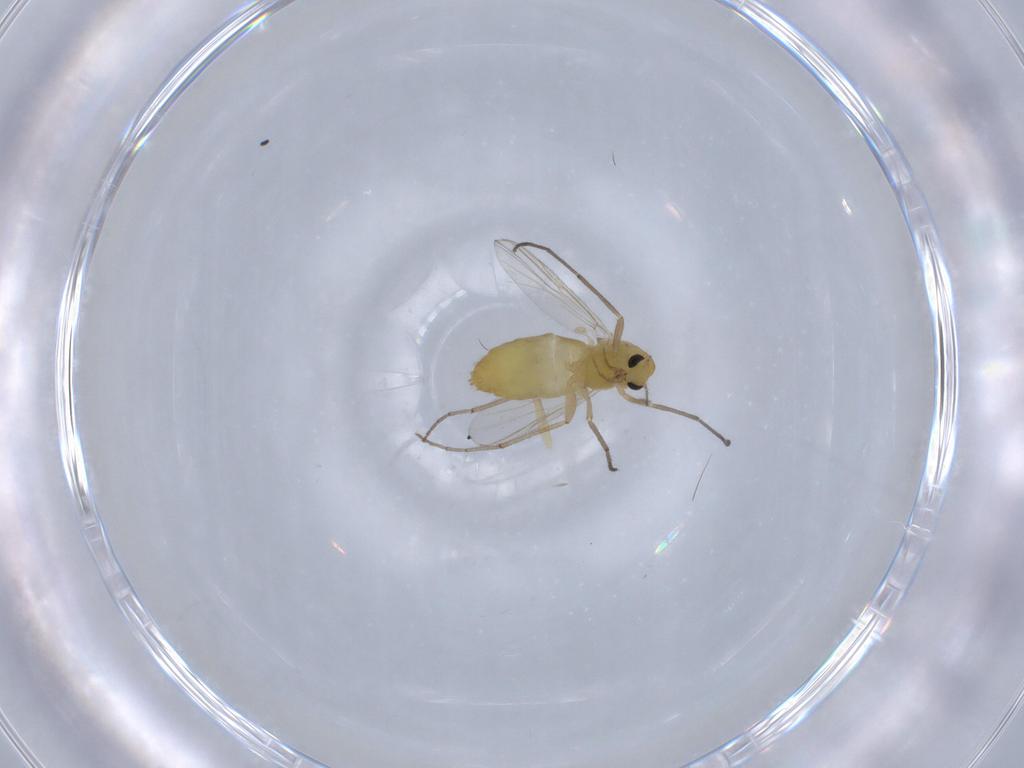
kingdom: Animalia
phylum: Arthropoda
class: Insecta
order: Diptera
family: Chironomidae
